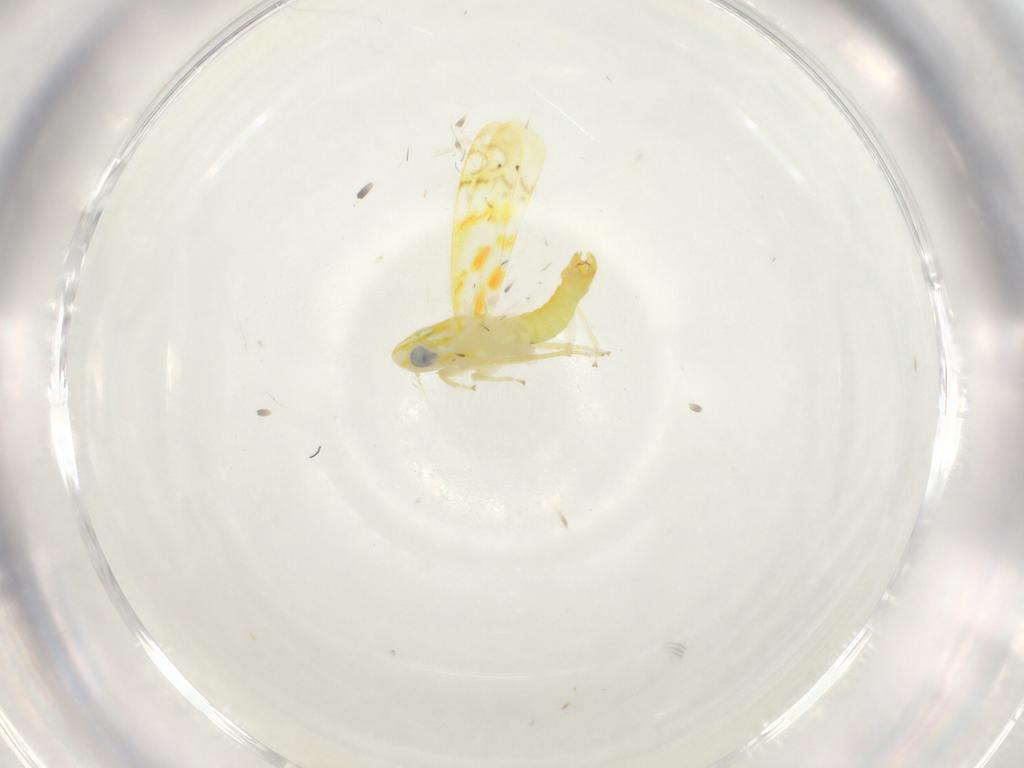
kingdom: Animalia
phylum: Arthropoda
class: Insecta
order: Hemiptera
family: Cicadellidae
